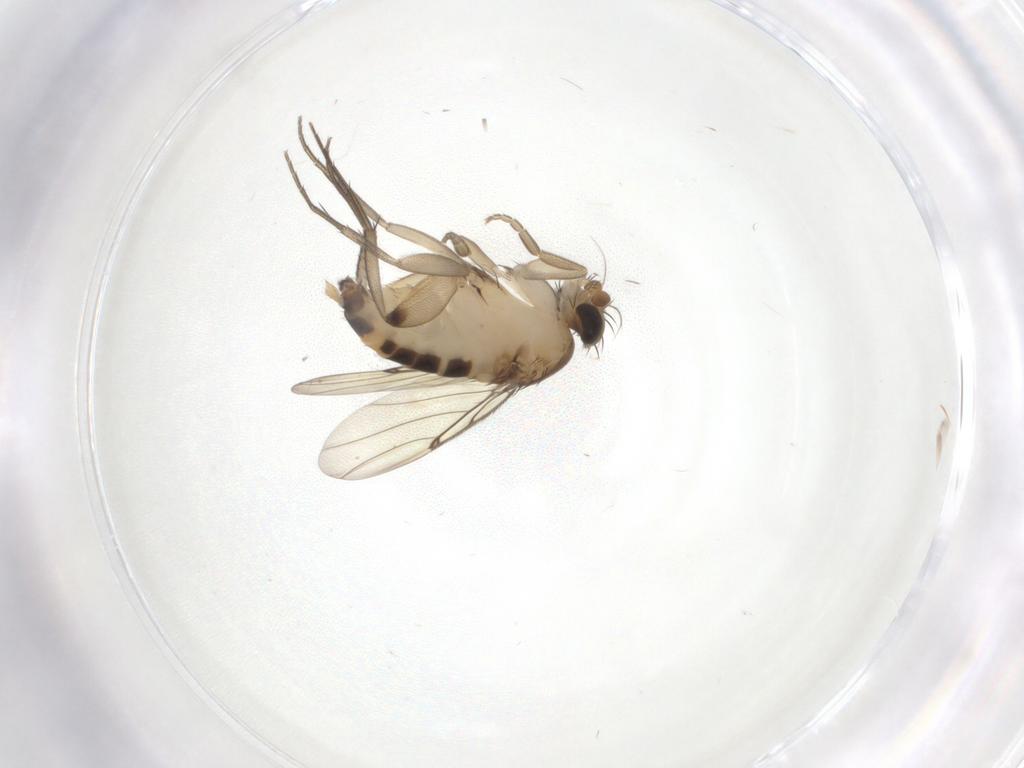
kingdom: Animalia
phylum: Arthropoda
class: Insecta
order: Diptera
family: Phoridae
